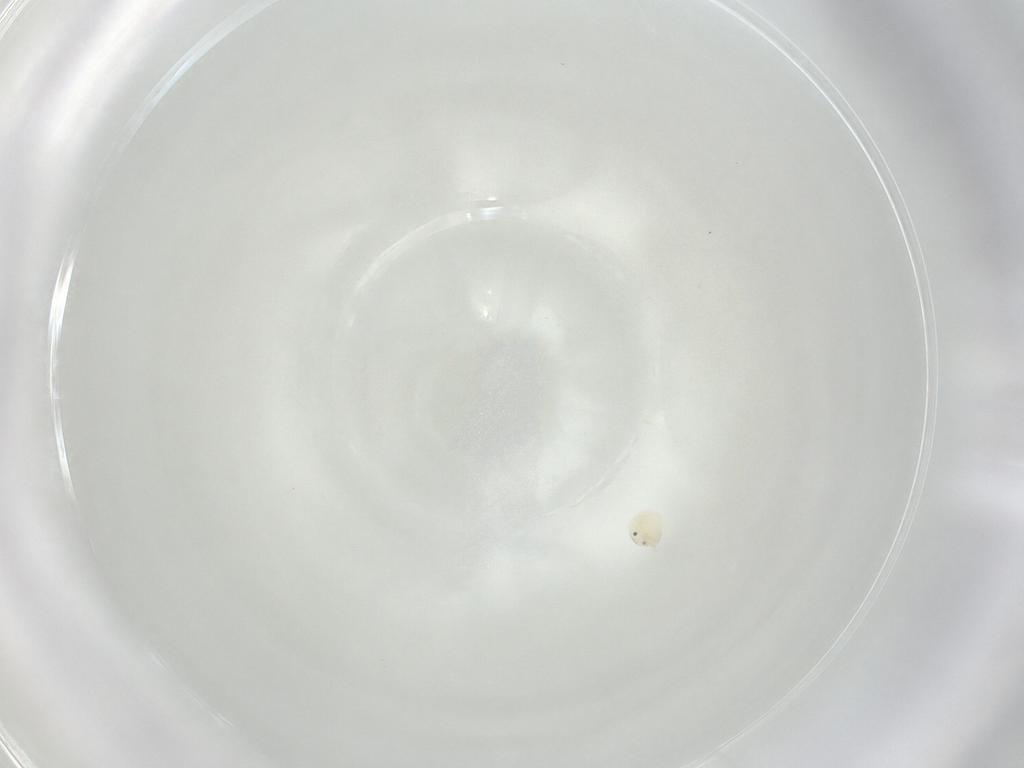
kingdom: Animalia
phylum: Arthropoda
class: Arachnida
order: Trombidiformes
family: Arrenuridae
